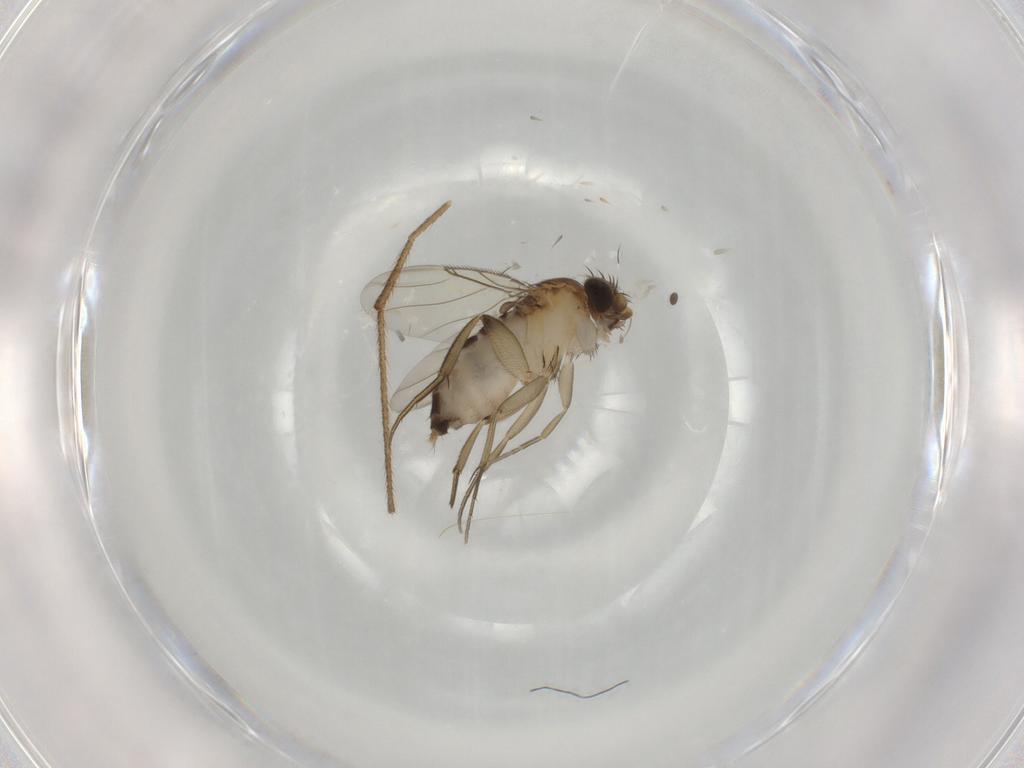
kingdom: Animalia
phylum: Arthropoda
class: Insecta
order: Diptera
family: Phoridae
